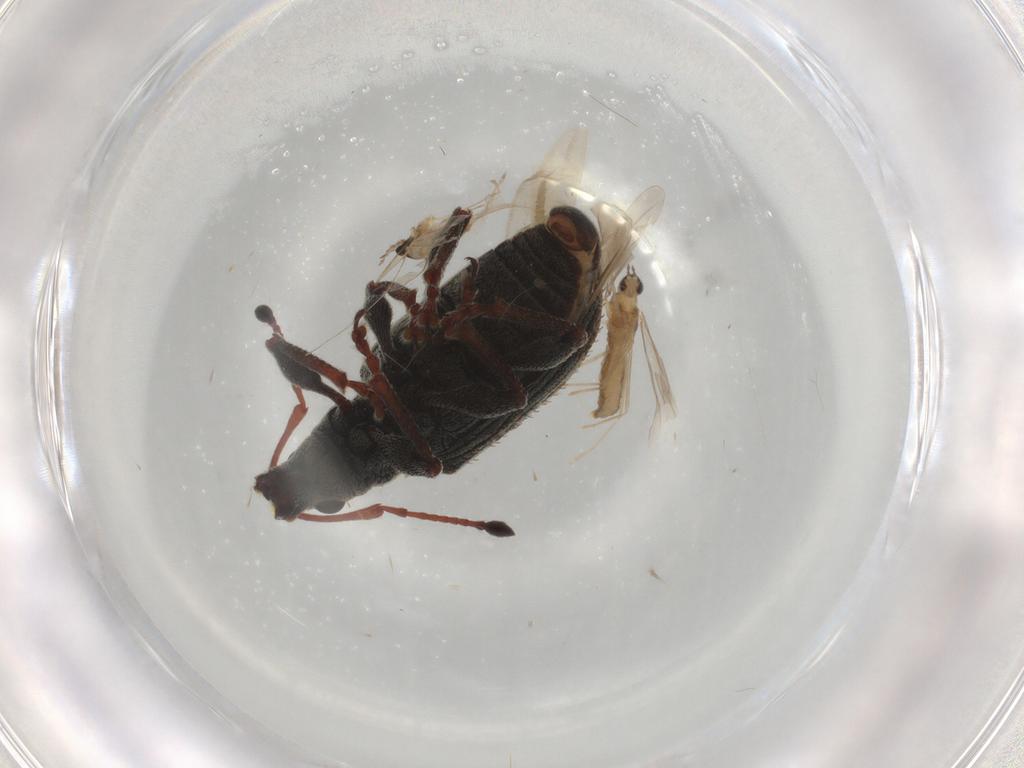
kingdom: Animalia
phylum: Arthropoda
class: Insecta
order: Coleoptera
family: Curculionidae
